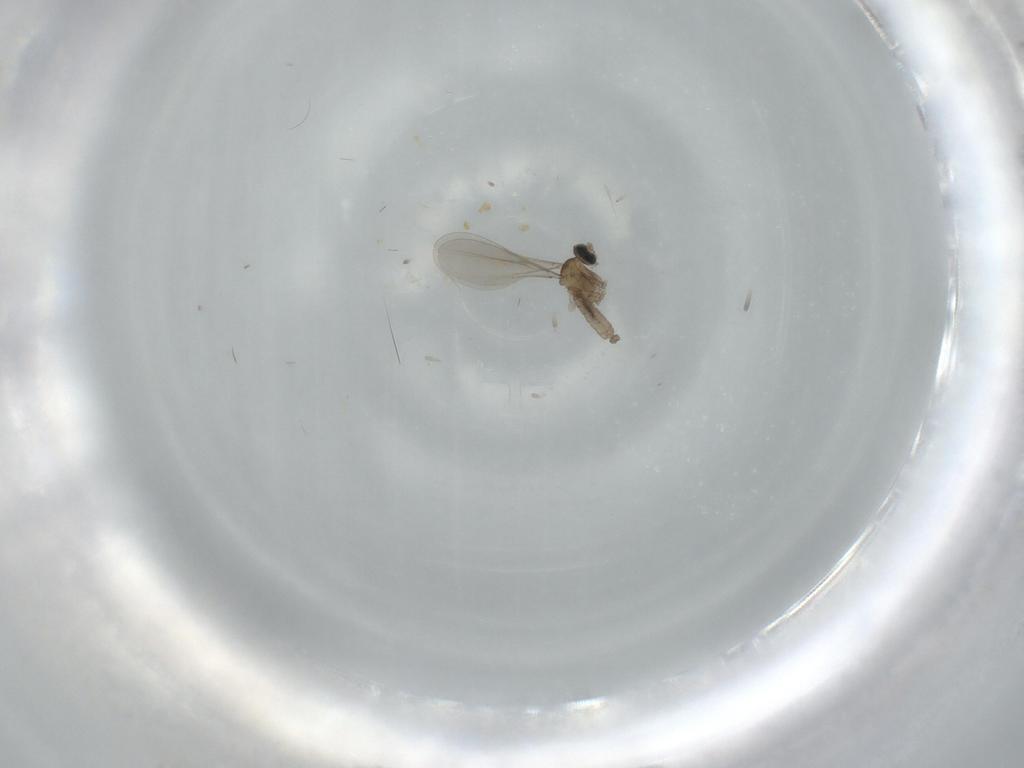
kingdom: Animalia
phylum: Arthropoda
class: Insecta
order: Diptera
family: Cecidomyiidae
